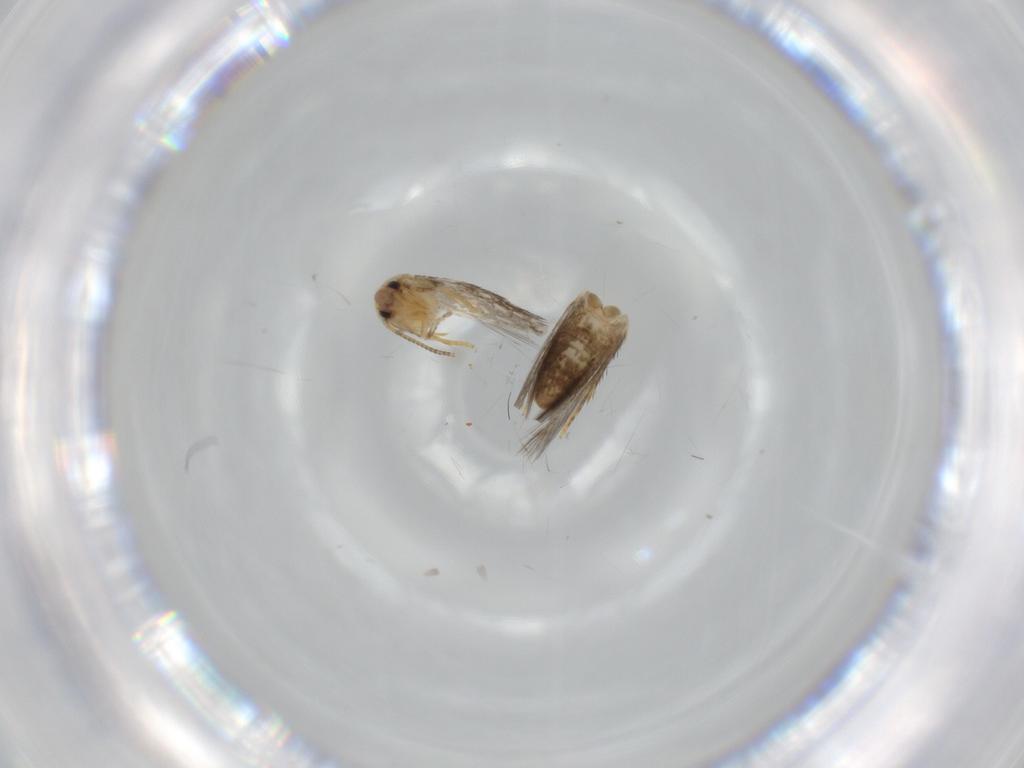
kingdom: Animalia
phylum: Arthropoda
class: Insecta
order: Lepidoptera
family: Nepticulidae
